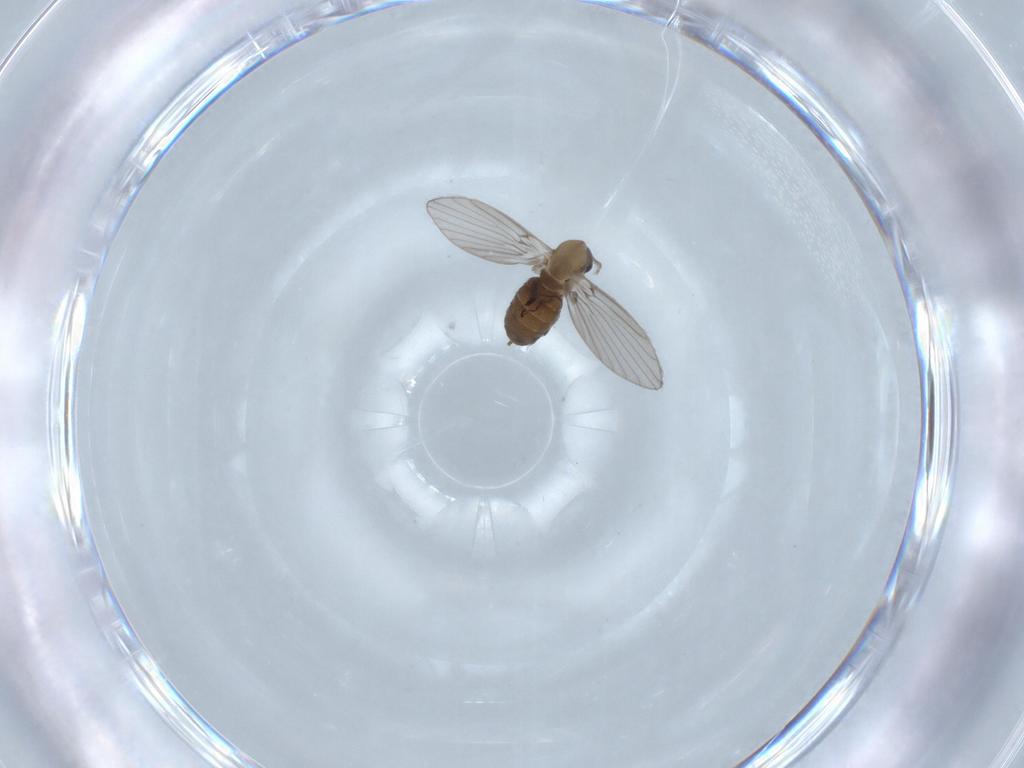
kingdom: Animalia
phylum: Arthropoda
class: Insecta
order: Diptera
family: Psychodidae
